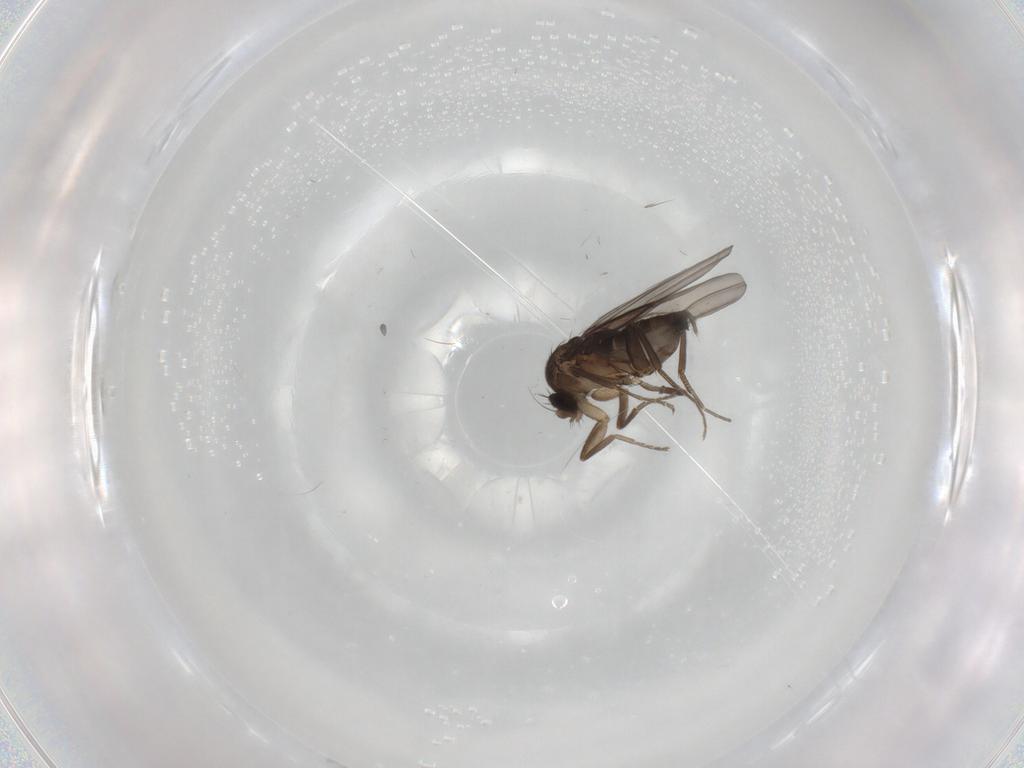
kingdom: Animalia
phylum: Arthropoda
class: Insecta
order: Diptera
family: Phoridae
